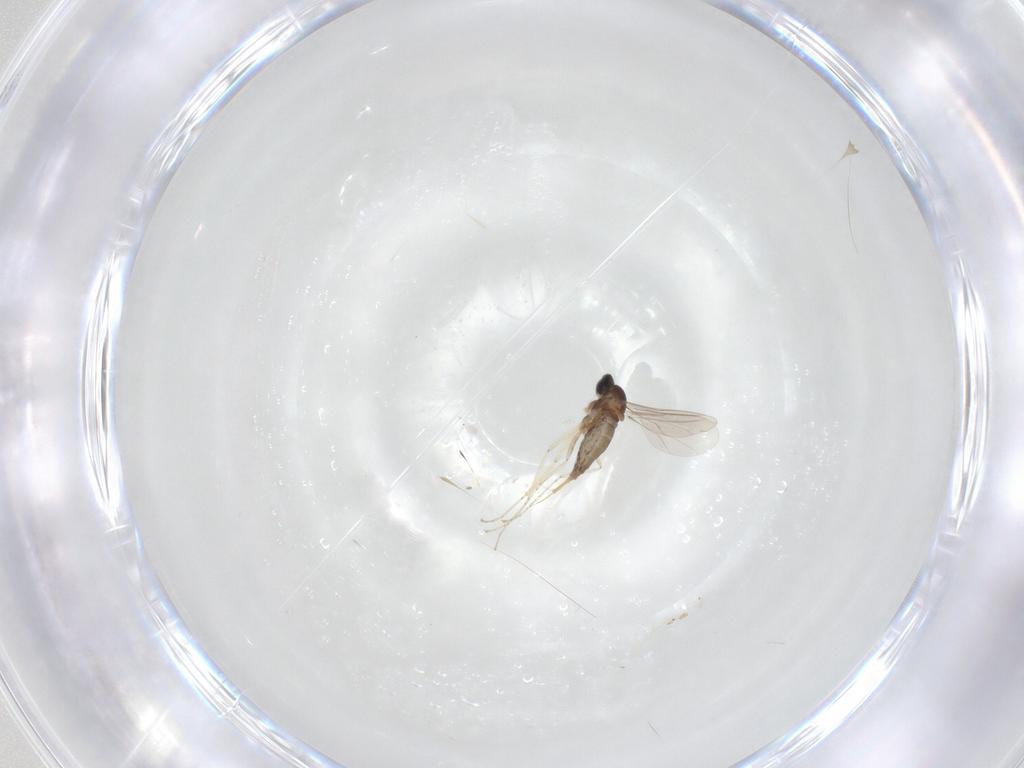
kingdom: Animalia
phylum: Arthropoda
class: Insecta
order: Diptera
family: Cecidomyiidae
